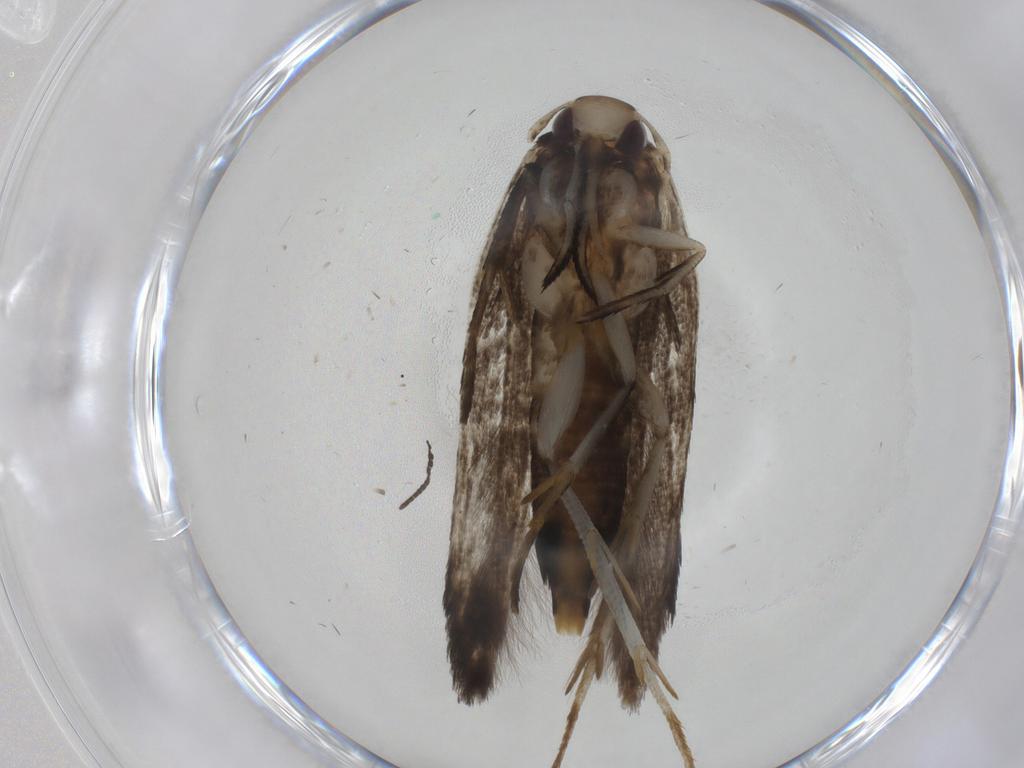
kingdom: Animalia
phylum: Arthropoda
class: Insecta
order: Lepidoptera
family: Depressariidae
